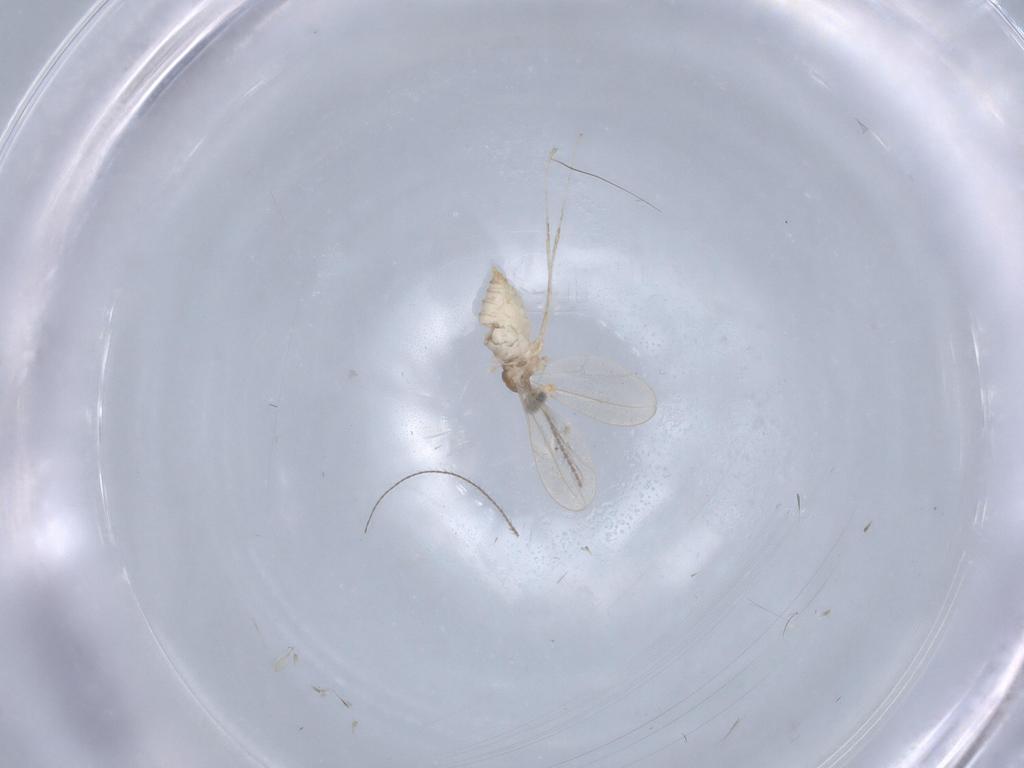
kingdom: Animalia
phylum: Arthropoda
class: Insecta
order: Diptera
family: Cecidomyiidae
